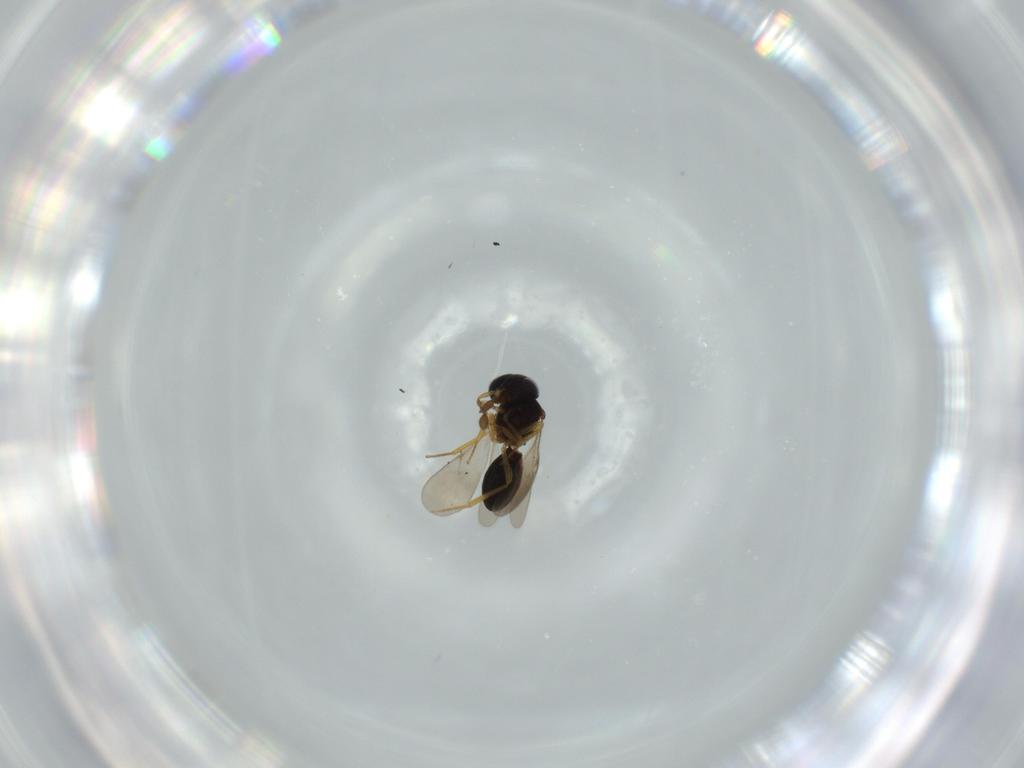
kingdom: Animalia
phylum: Arthropoda
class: Insecta
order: Hymenoptera
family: Scelionidae
